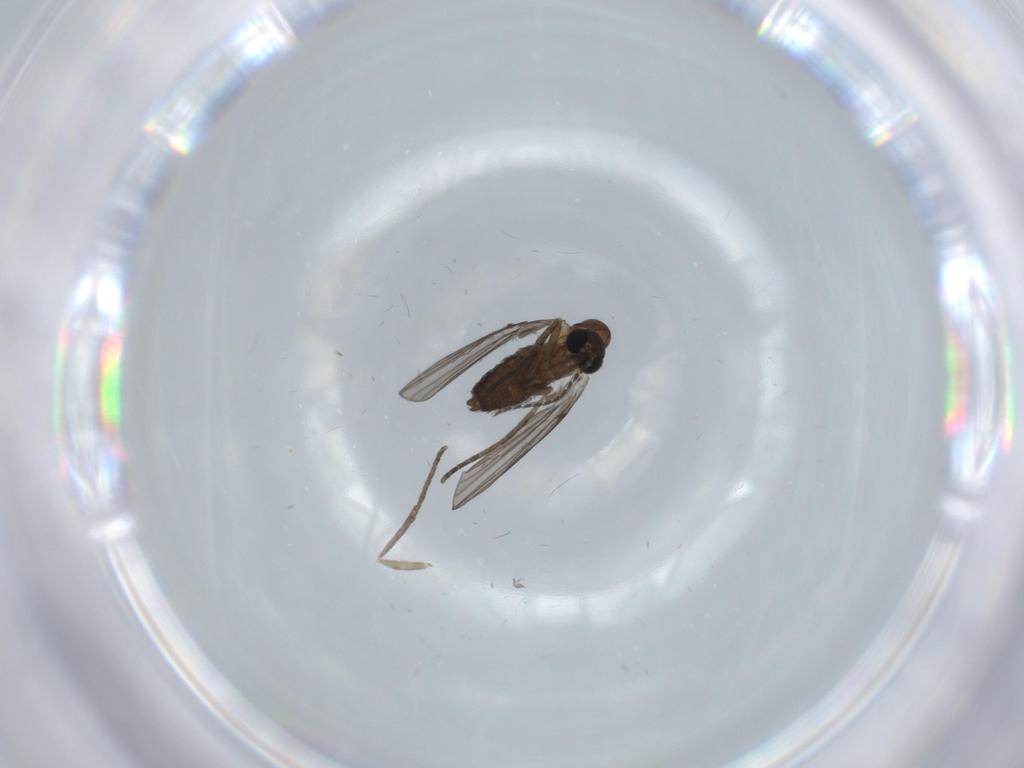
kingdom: Animalia
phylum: Arthropoda
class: Insecta
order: Diptera
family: Psychodidae
